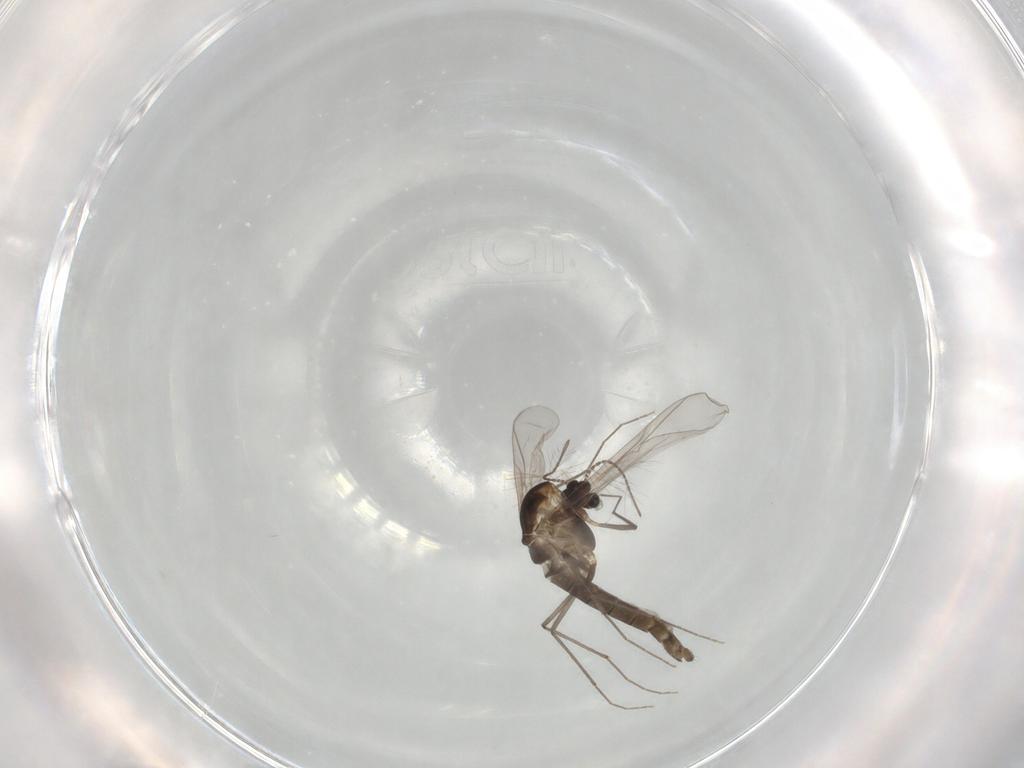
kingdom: Animalia
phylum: Arthropoda
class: Insecta
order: Diptera
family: Chironomidae
